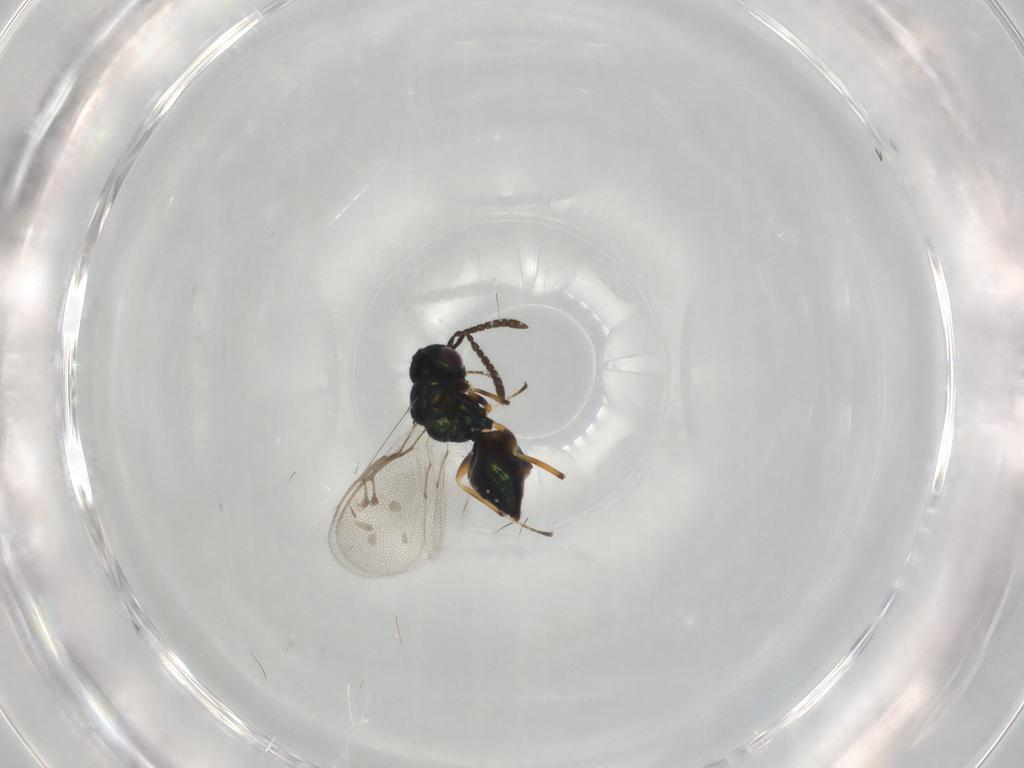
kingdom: Animalia
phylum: Arthropoda
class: Insecta
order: Hymenoptera
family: Pteromalidae
